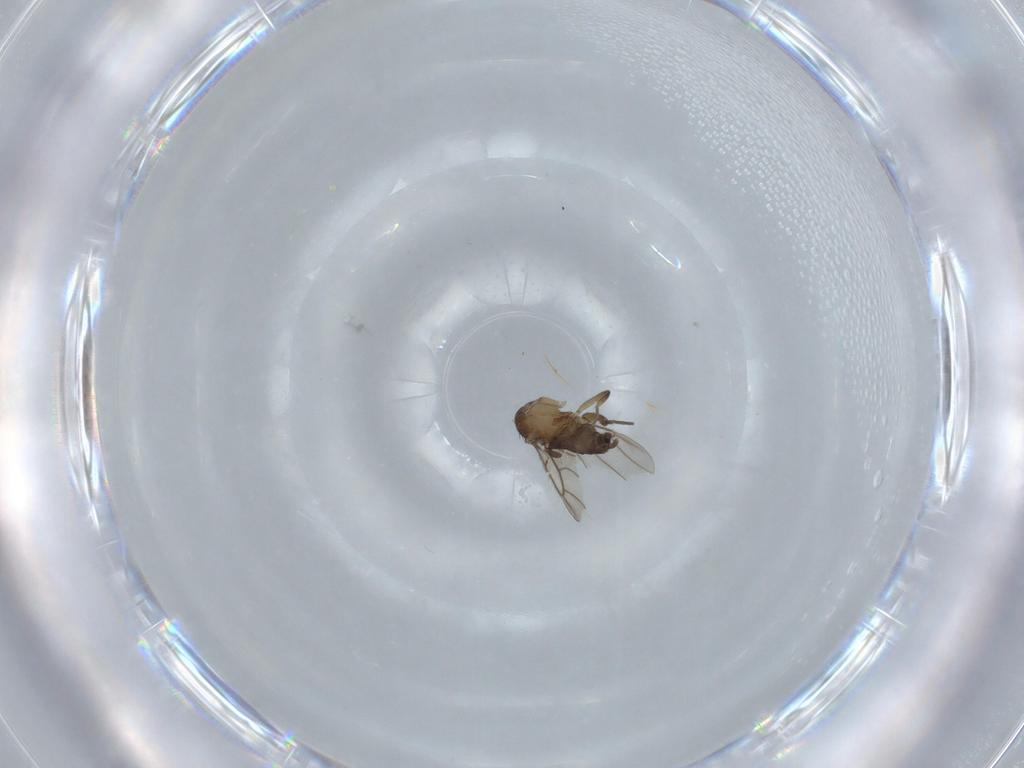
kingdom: Animalia
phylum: Arthropoda
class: Insecta
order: Diptera
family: Phoridae
